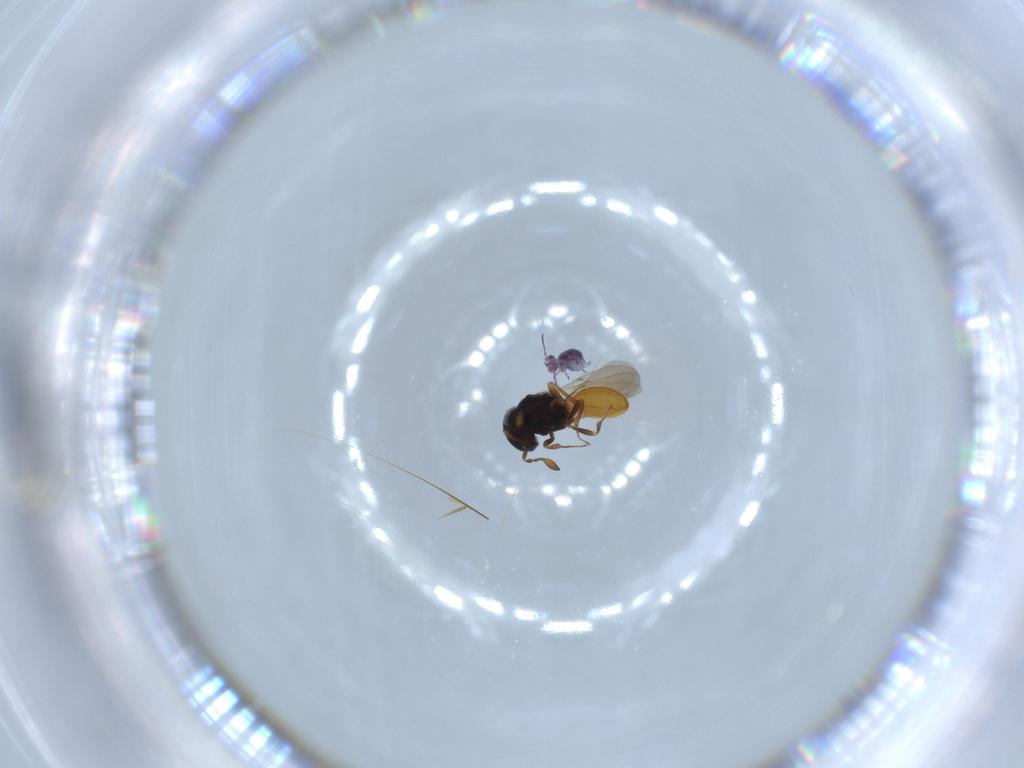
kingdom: Animalia
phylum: Arthropoda
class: Insecta
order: Hymenoptera
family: Scelionidae
